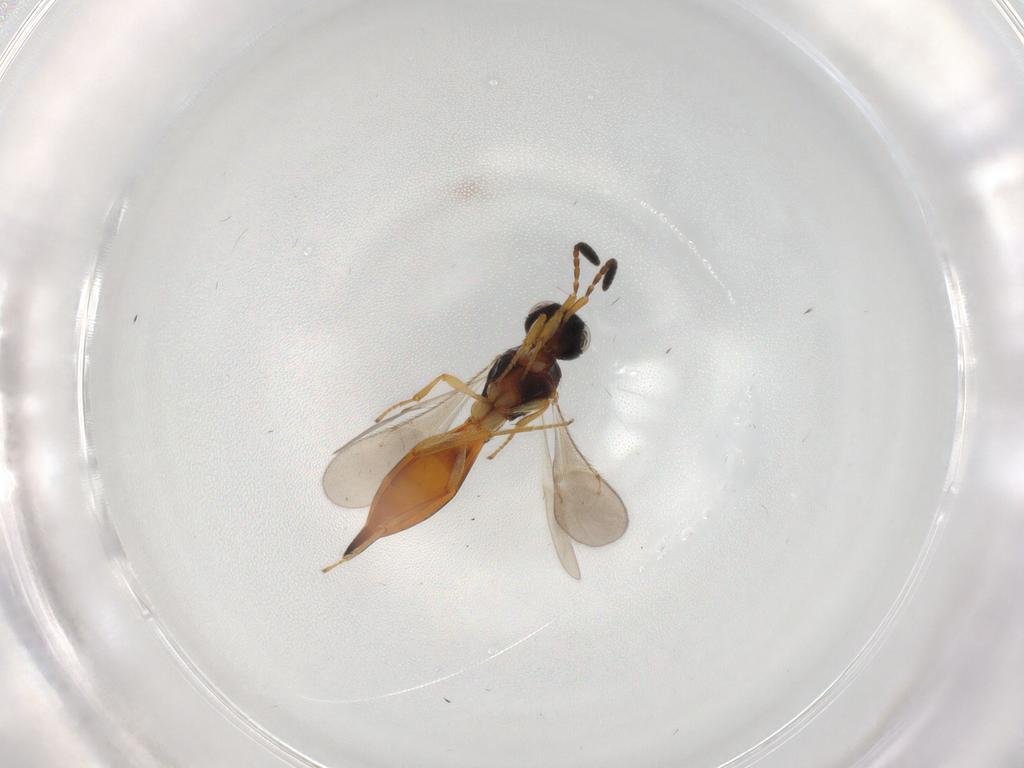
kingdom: Animalia
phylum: Arthropoda
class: Insecta
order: Hymenoptera
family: Scelionidae
